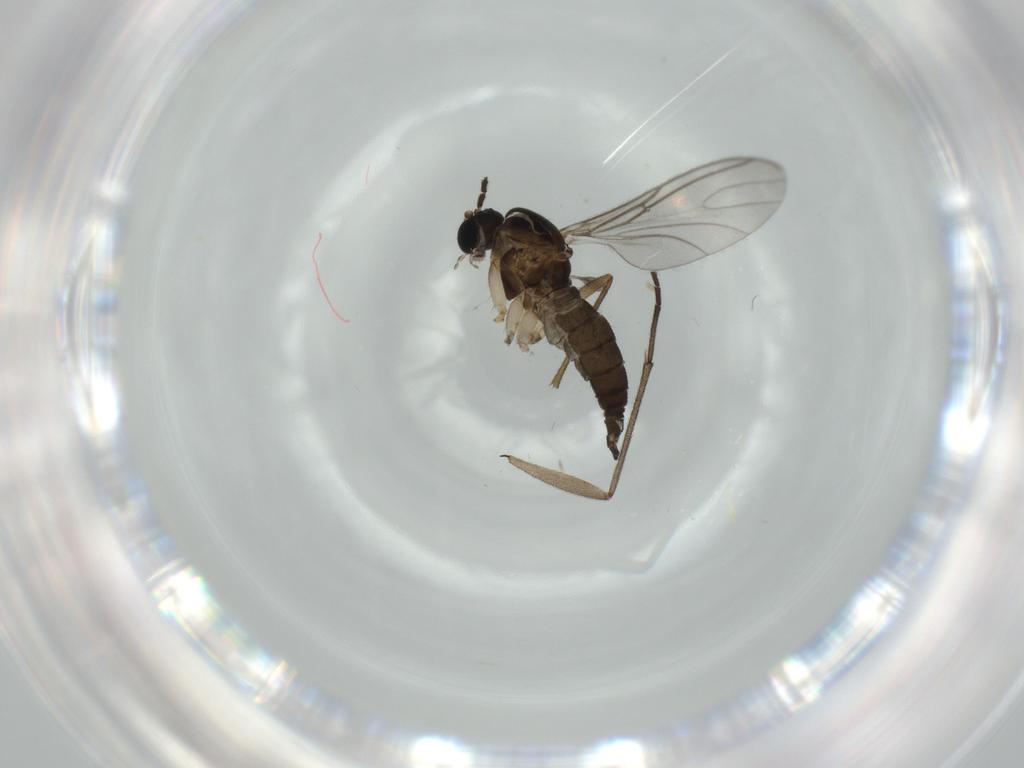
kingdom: Animalia
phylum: Arthropoda
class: Insecta
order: Diptera
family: Sciaridae
